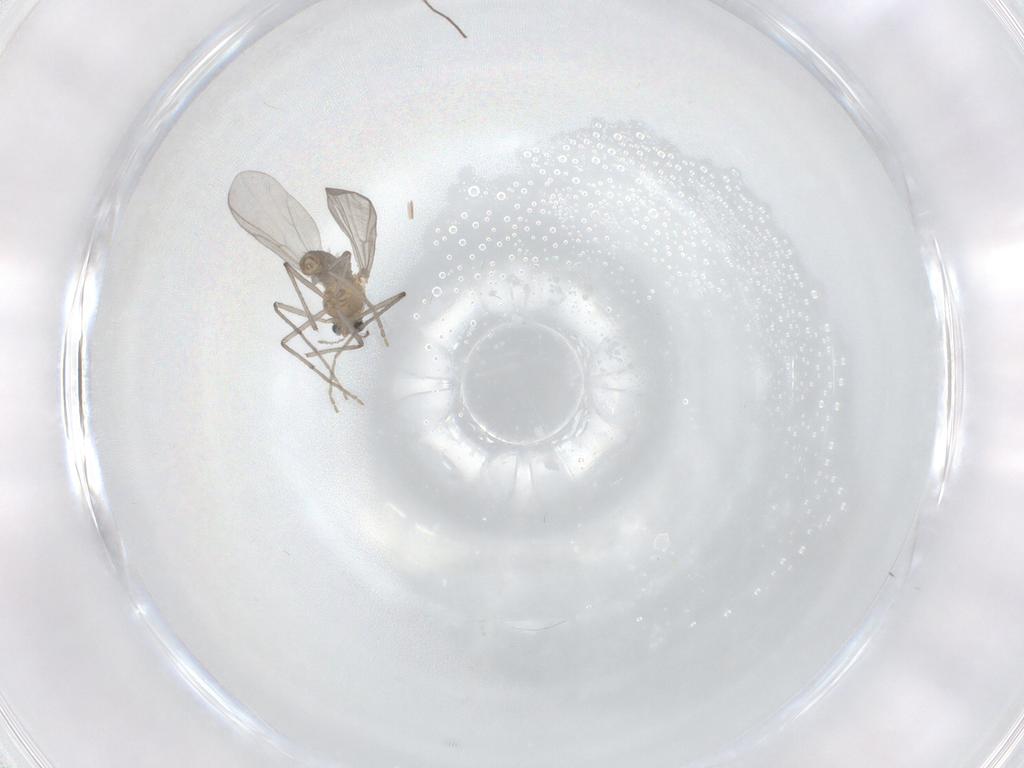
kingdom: Animalia
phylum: Arthropoda
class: Insecta
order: Diptera
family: Chironomidae
